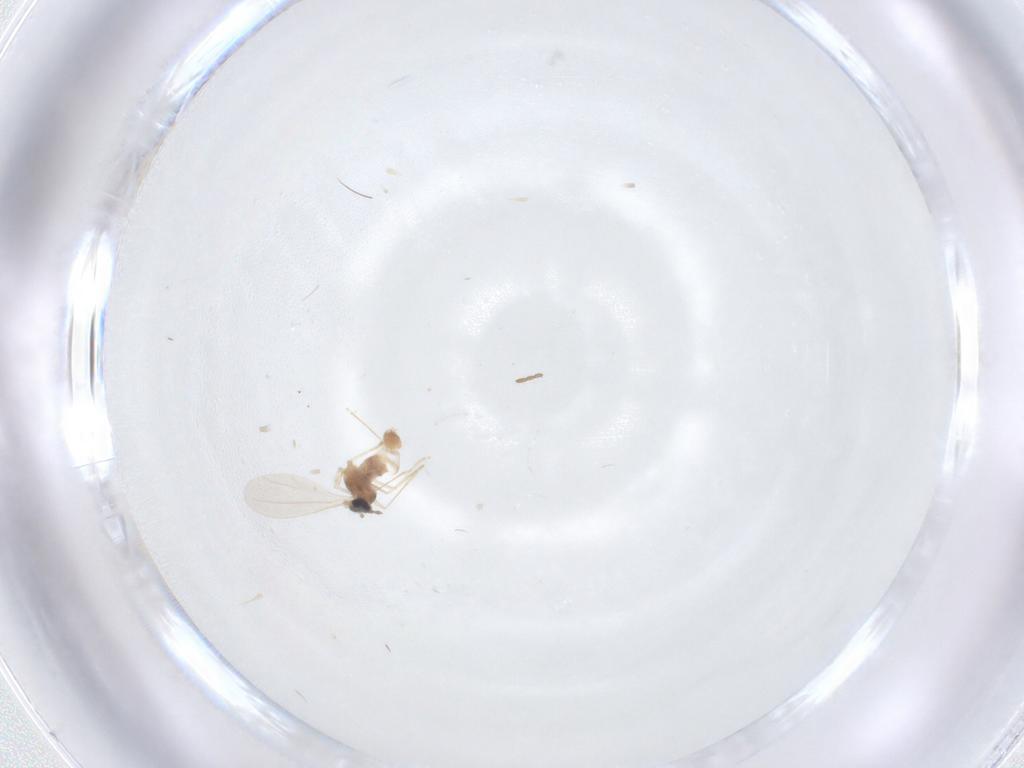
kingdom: Animalia
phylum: Arthropoda
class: Insecta
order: Diptera
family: Cecidomyiidae
